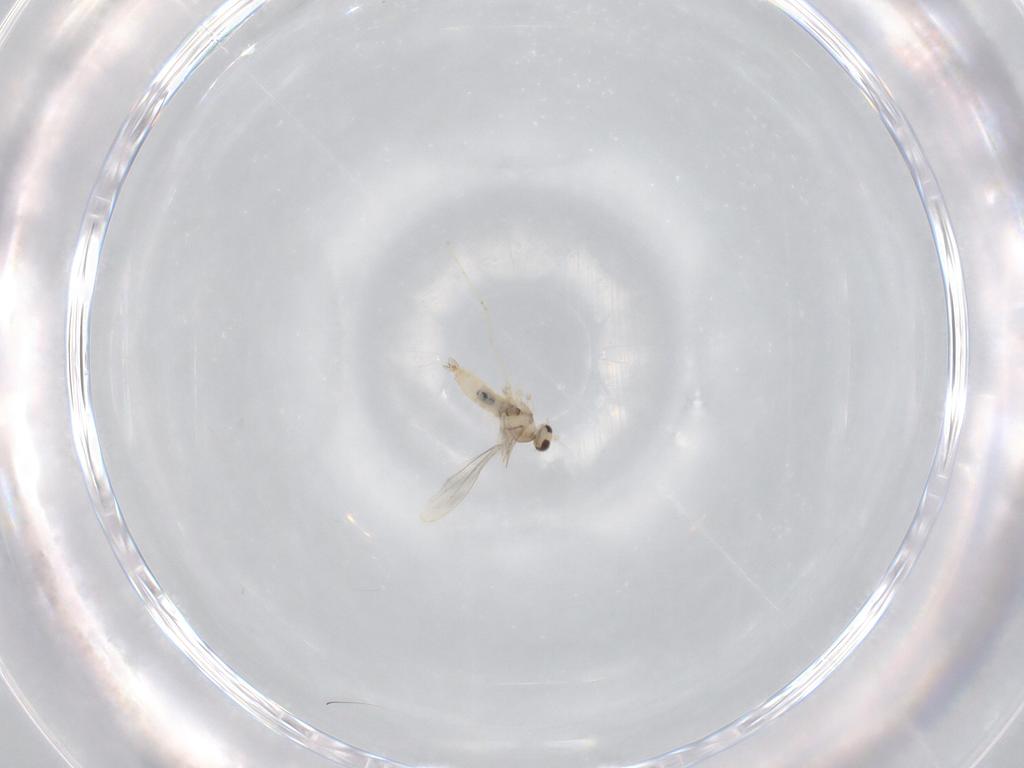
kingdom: Animalia
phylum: Arthropoda
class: Insecta
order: Diptera
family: Cecidomyiidae
